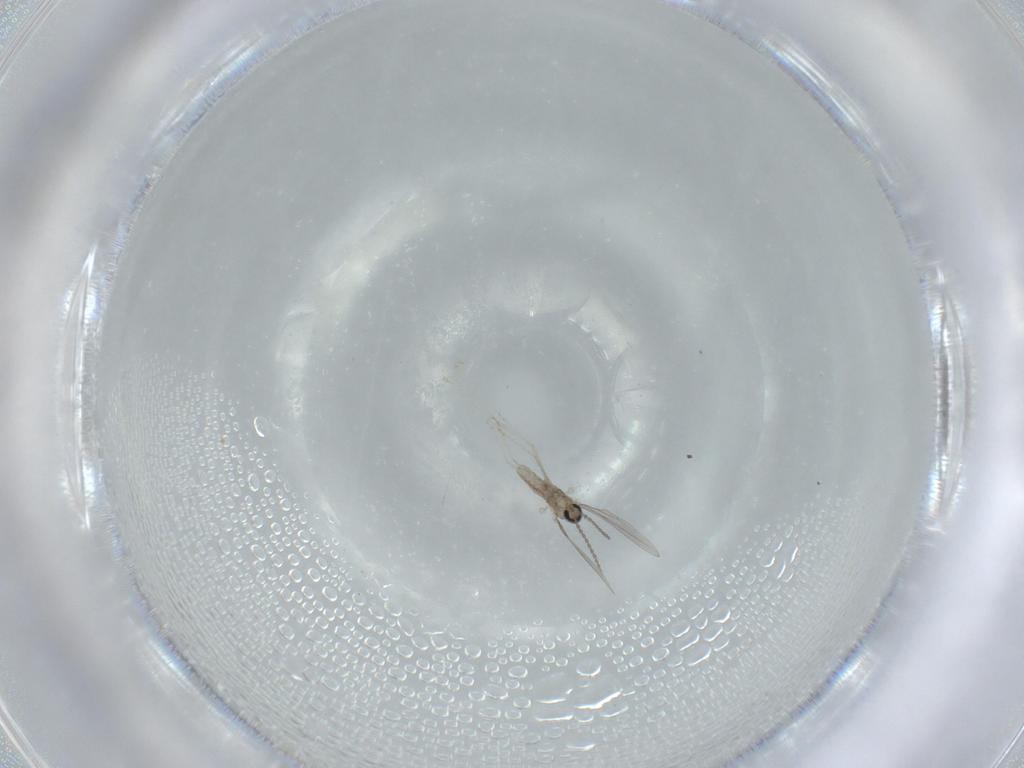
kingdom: Animalia
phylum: Arthropoda
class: Insecta
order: Diptera
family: Cecidomyiidae
